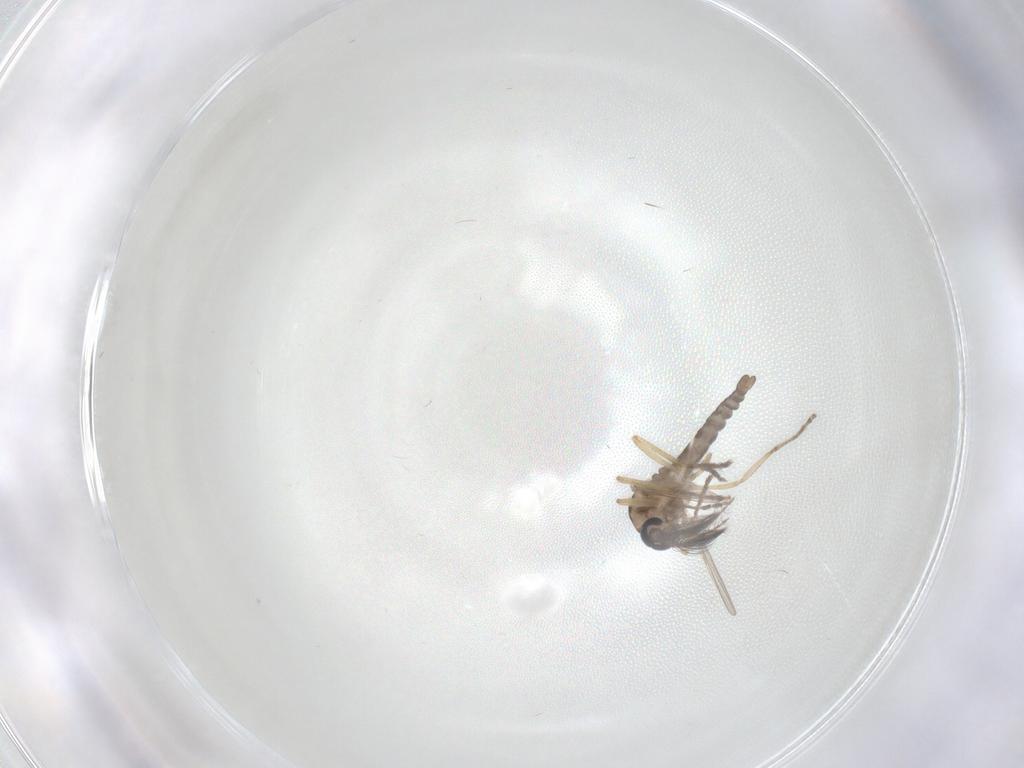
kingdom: Animalia
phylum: Arthropoda
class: Insecta
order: Diptera
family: Ceratopogonidae
